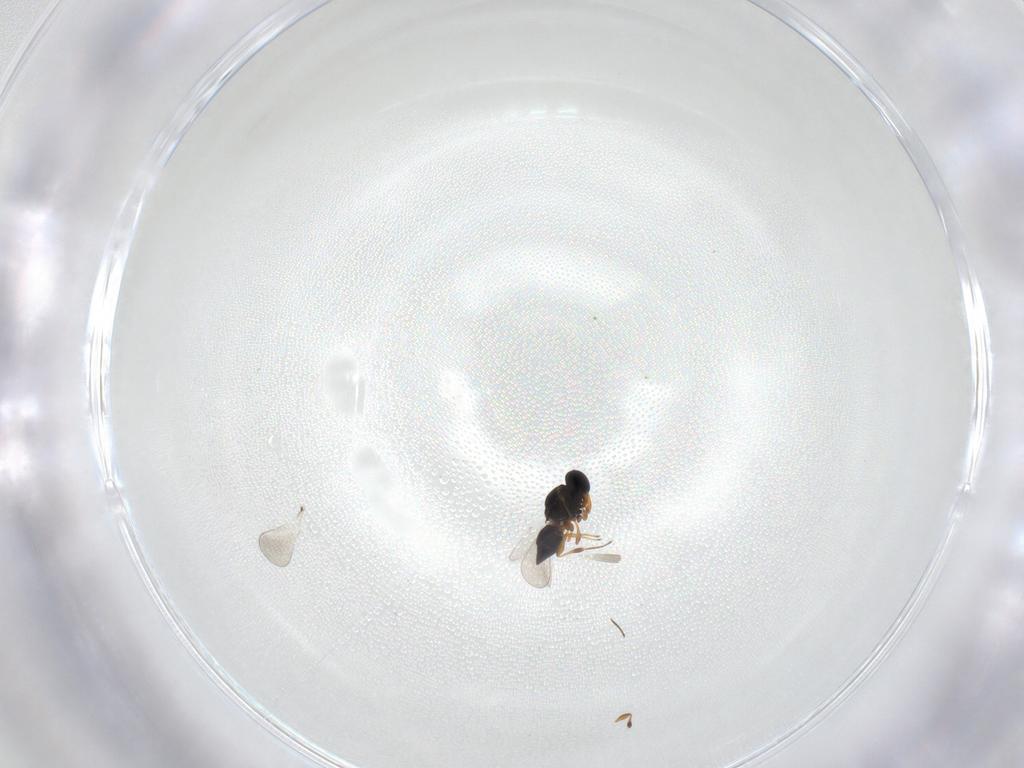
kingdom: Animalia
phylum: Arthropoda
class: Insecta
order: Hymenoptera
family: Platygastridae
